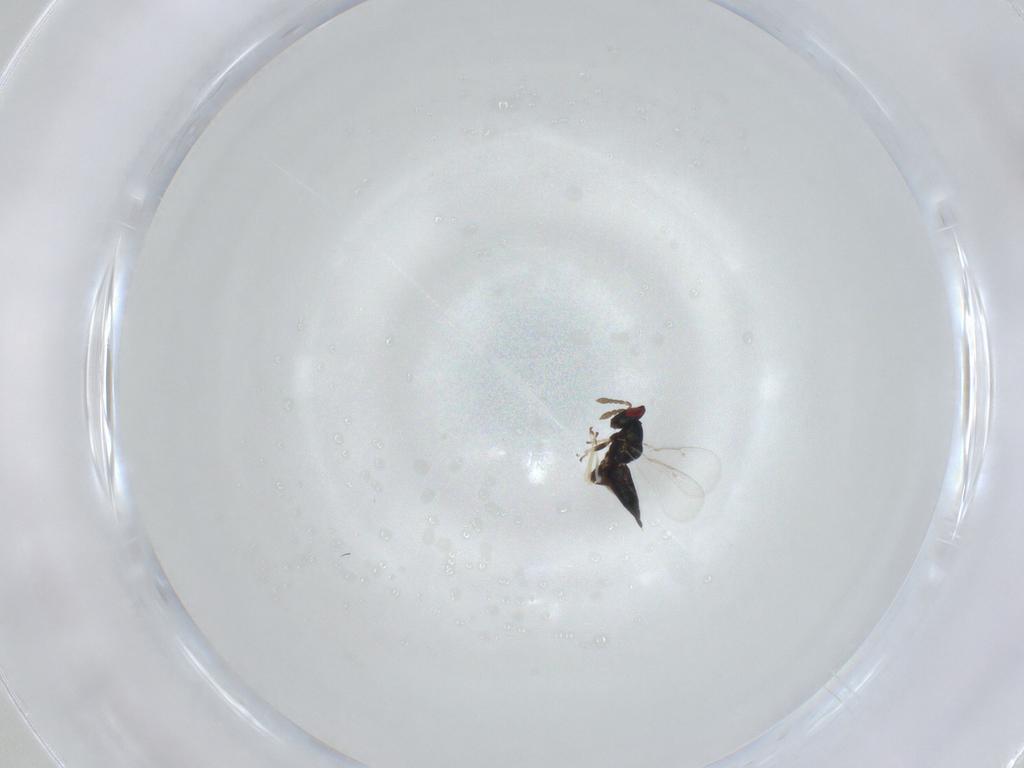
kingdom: Animalia
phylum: Arthropoda
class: Insecta
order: Hymenoptera
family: Eulophidae
